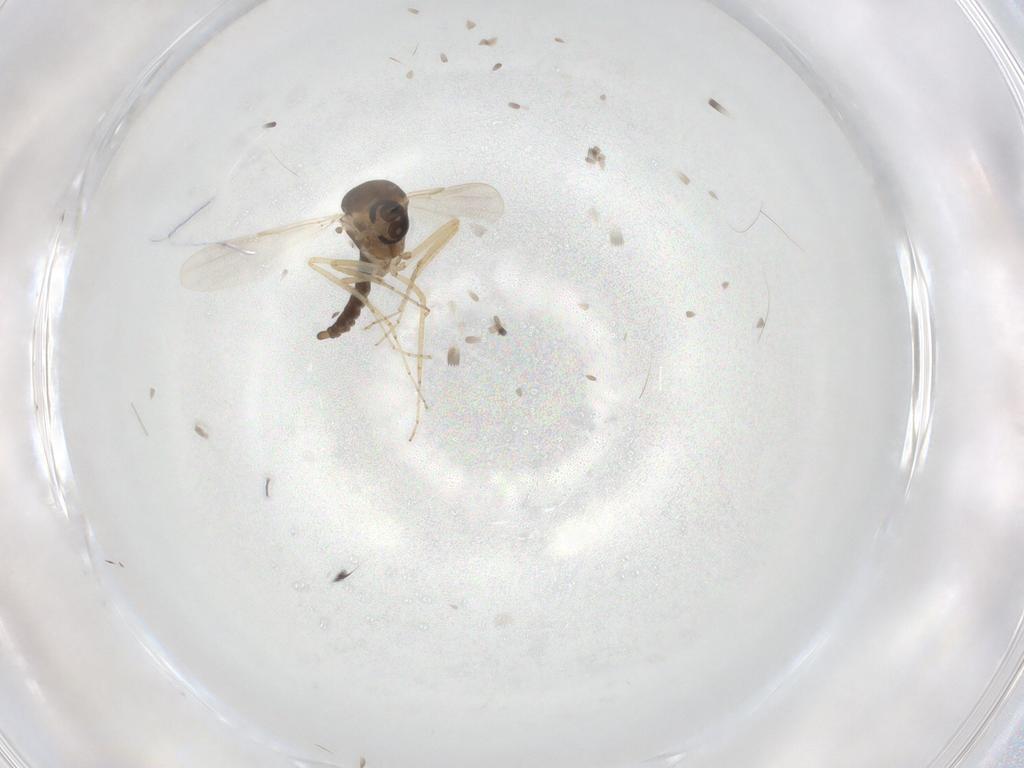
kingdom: Animalia
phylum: Arthropoda
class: Insecta
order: Diptera
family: Ceratopogonidae
